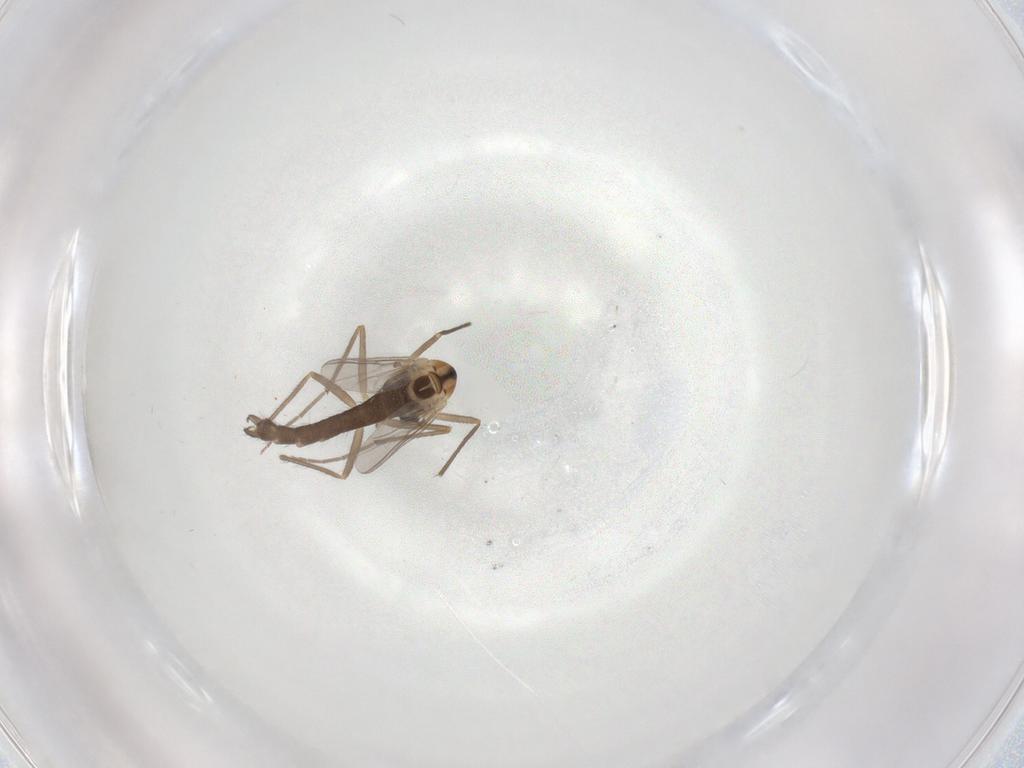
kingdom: Animalia
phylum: Arthropoda
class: Insecta
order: Diptera
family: Chironomidae
